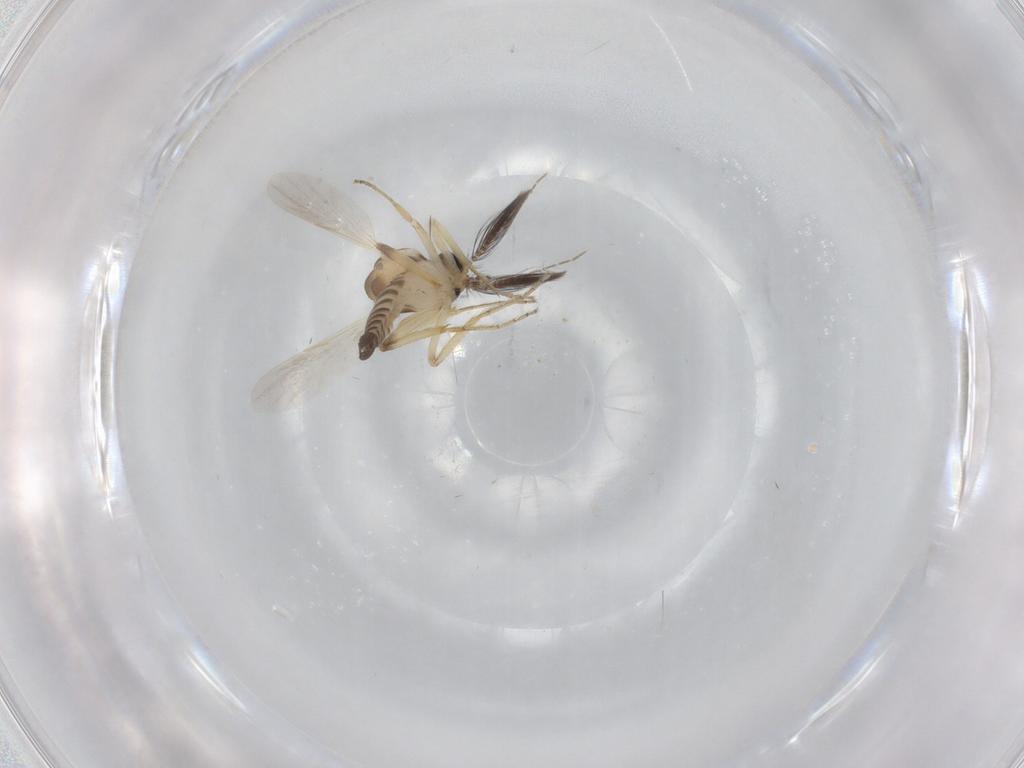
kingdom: Animalia
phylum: Arthropoda
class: Insecta
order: Diptera
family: Ceratopogonidae
